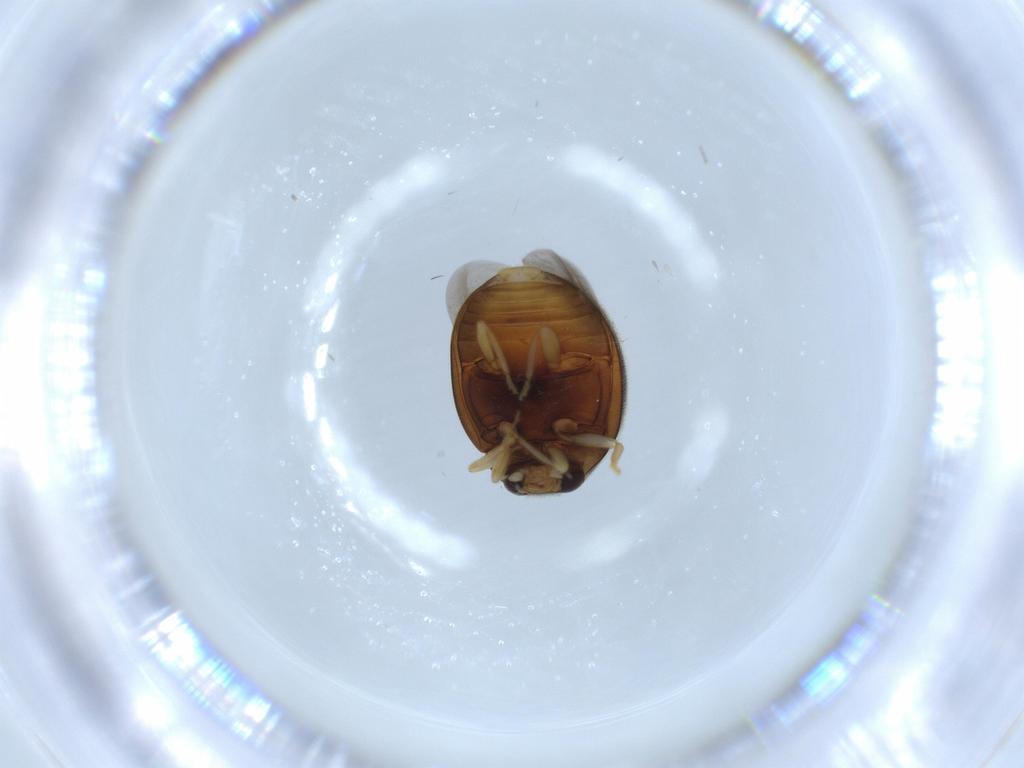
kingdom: Animalia
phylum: Arthropoda
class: Insecta
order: Coleoptera
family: Coccinellidae
